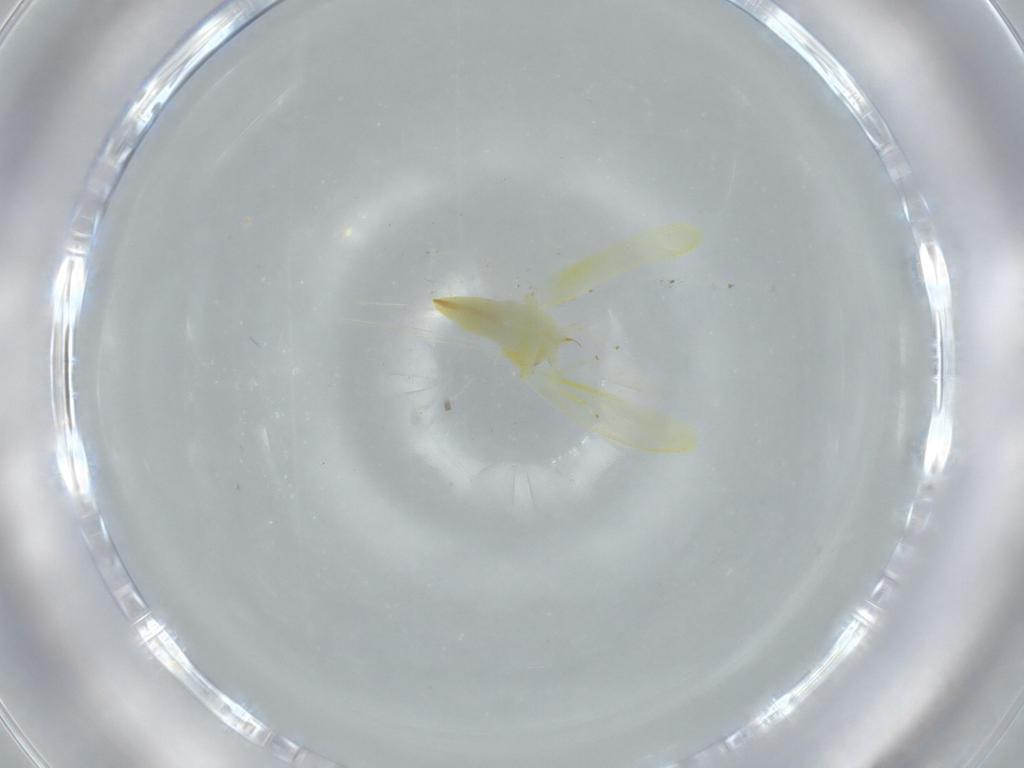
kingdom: Animalia
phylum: Arthropoda
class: Insecta
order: Hemiptera
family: Cicadellidae
